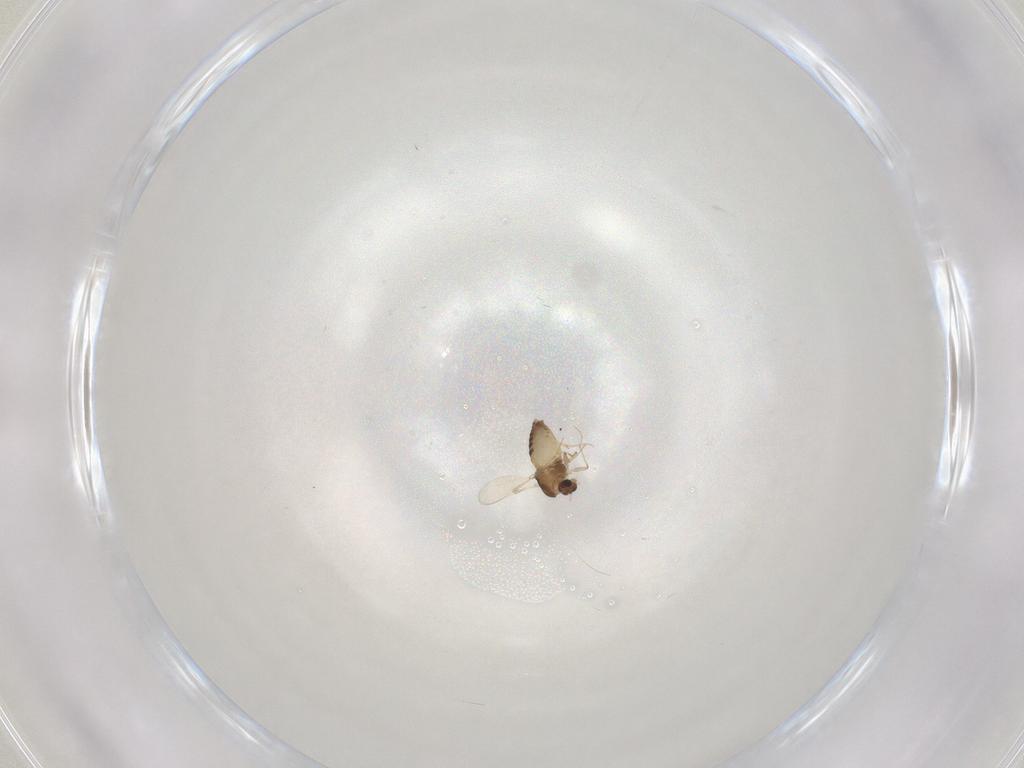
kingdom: Animalia
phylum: Arthropoda
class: Insecta
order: Diptera
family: Chironomidae
